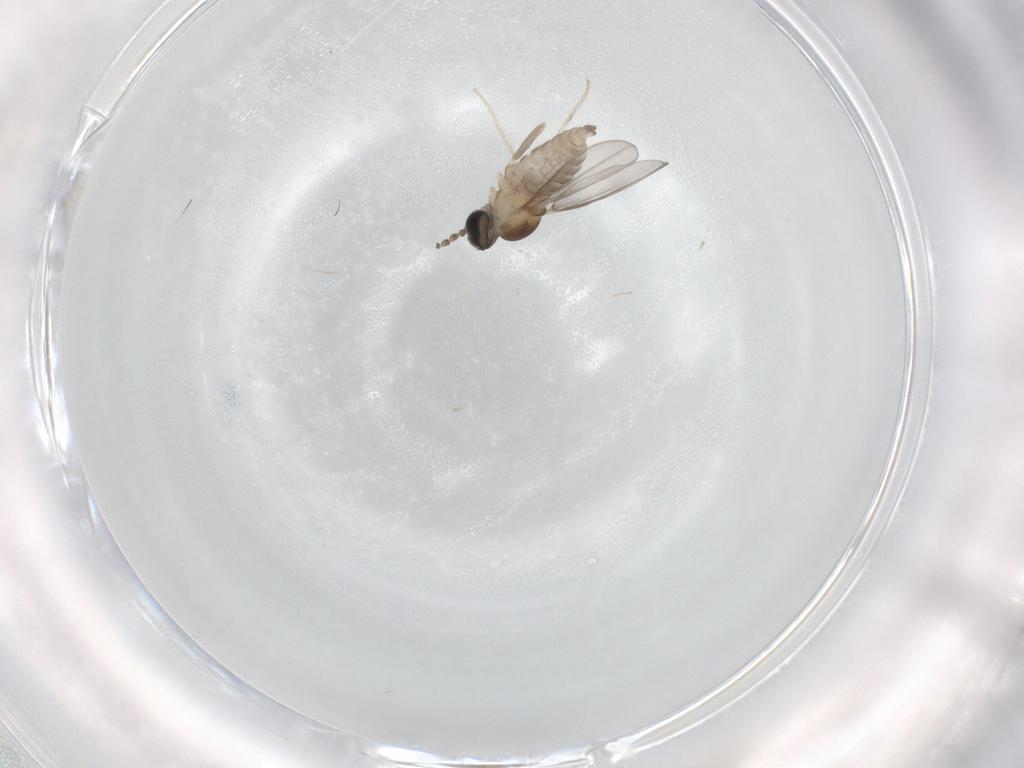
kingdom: Animalia
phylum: Arthropoda
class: Insecta
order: Diptera
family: Cecidomyiidae
